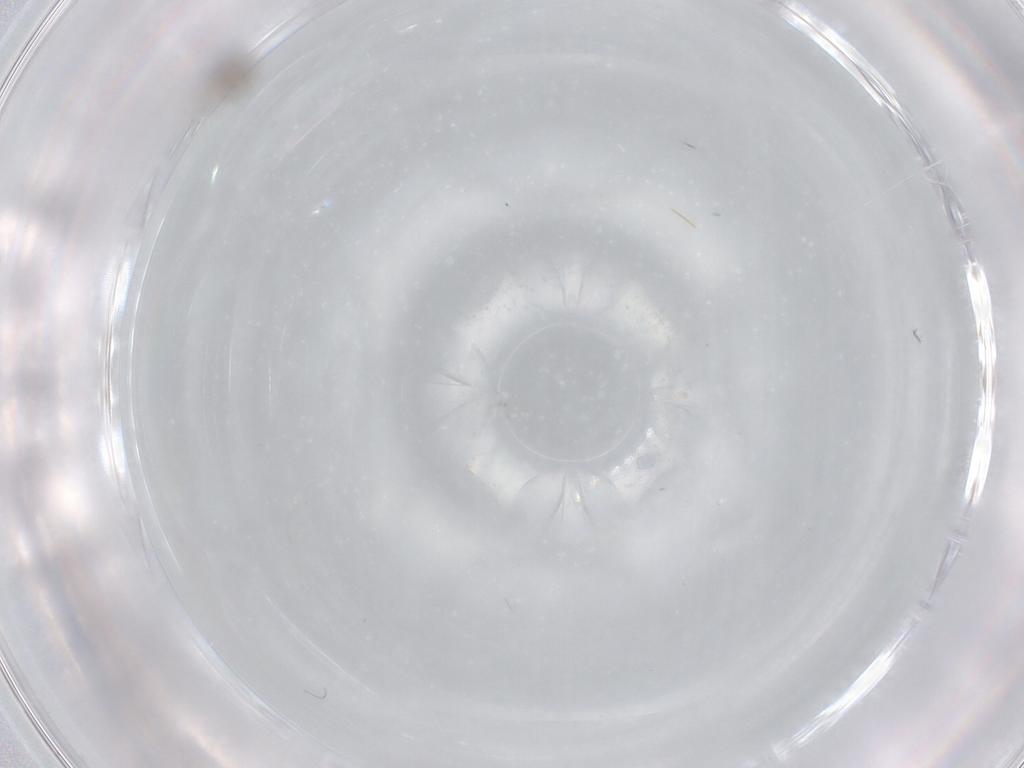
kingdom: Animalia
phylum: Arthropoda
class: Insecta
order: Diptera
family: Psychodidae
